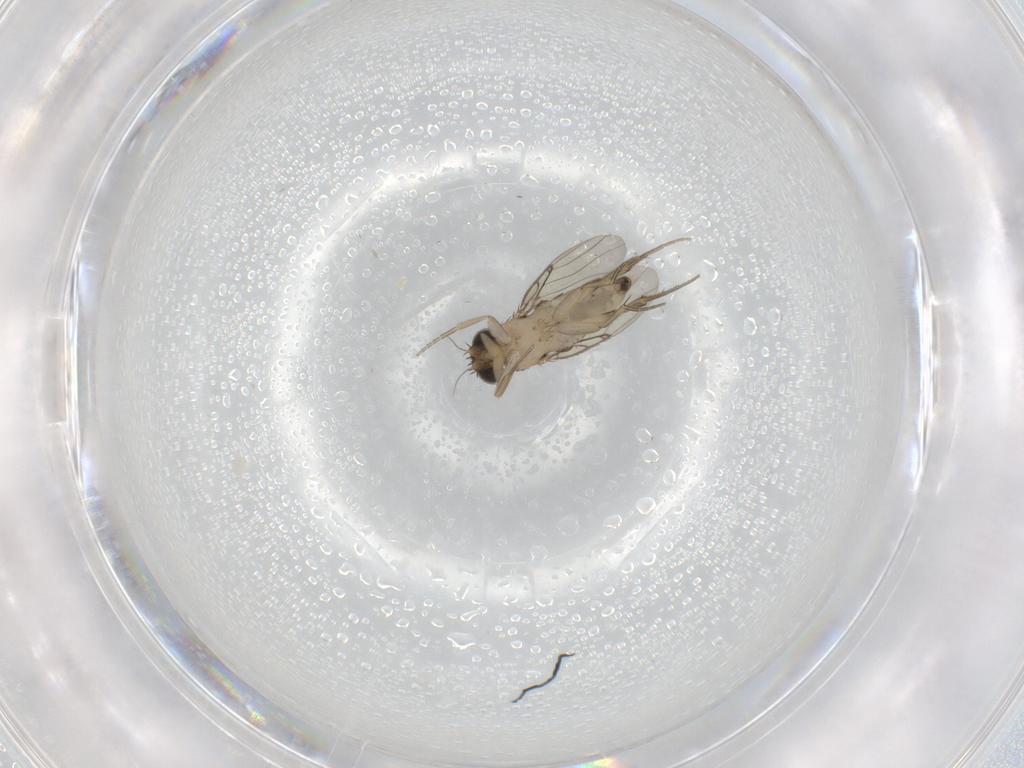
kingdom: Animalia
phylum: Arthropoda
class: Insecta
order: Diptera
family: Phoridae
